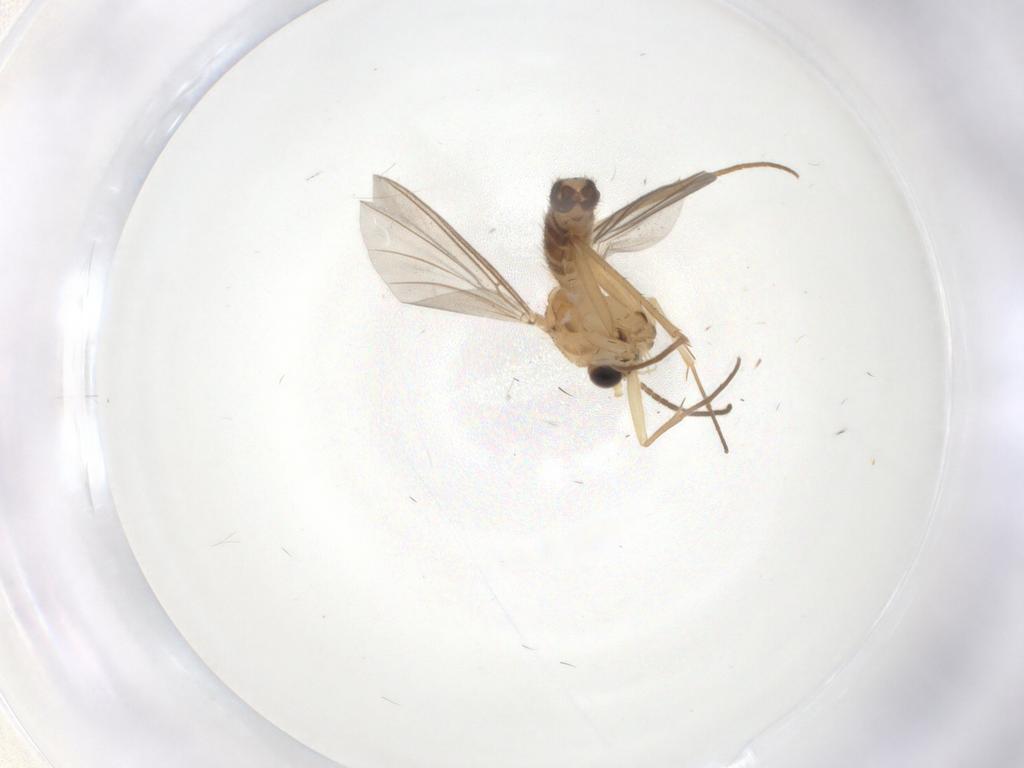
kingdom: Animalia
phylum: Arthropoda
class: Insecta
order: Diptera
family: Mycetophilidae
